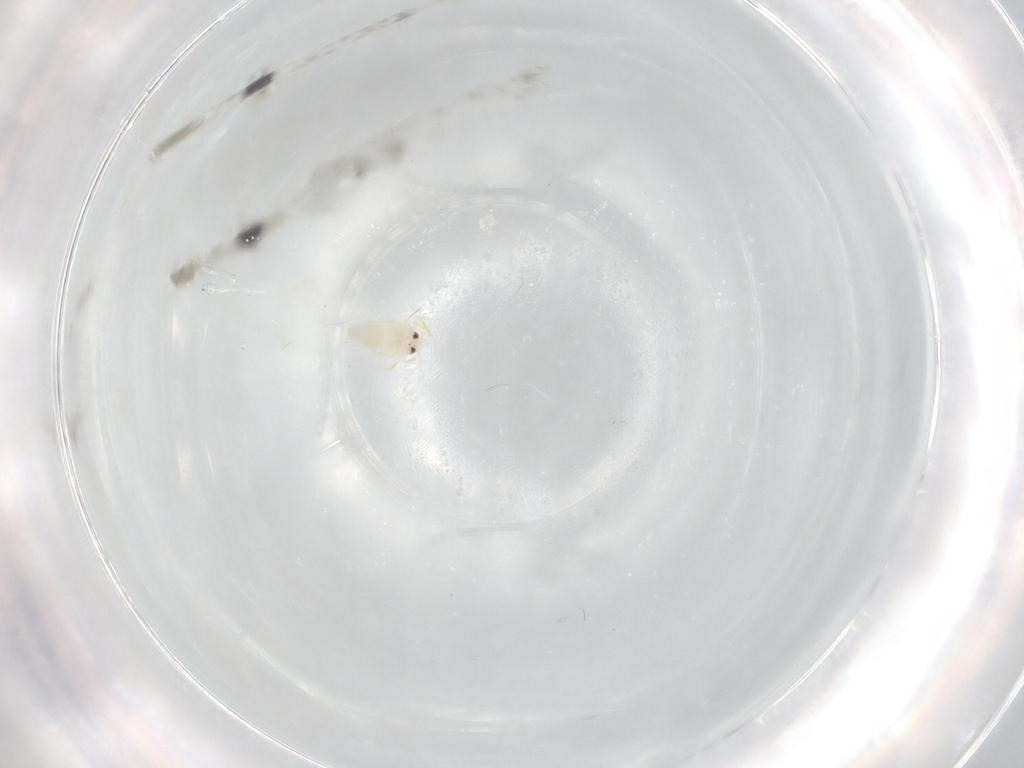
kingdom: Animalia
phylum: Arthropoda
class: Insecta
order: Hemiptera
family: Aleyrodidae
